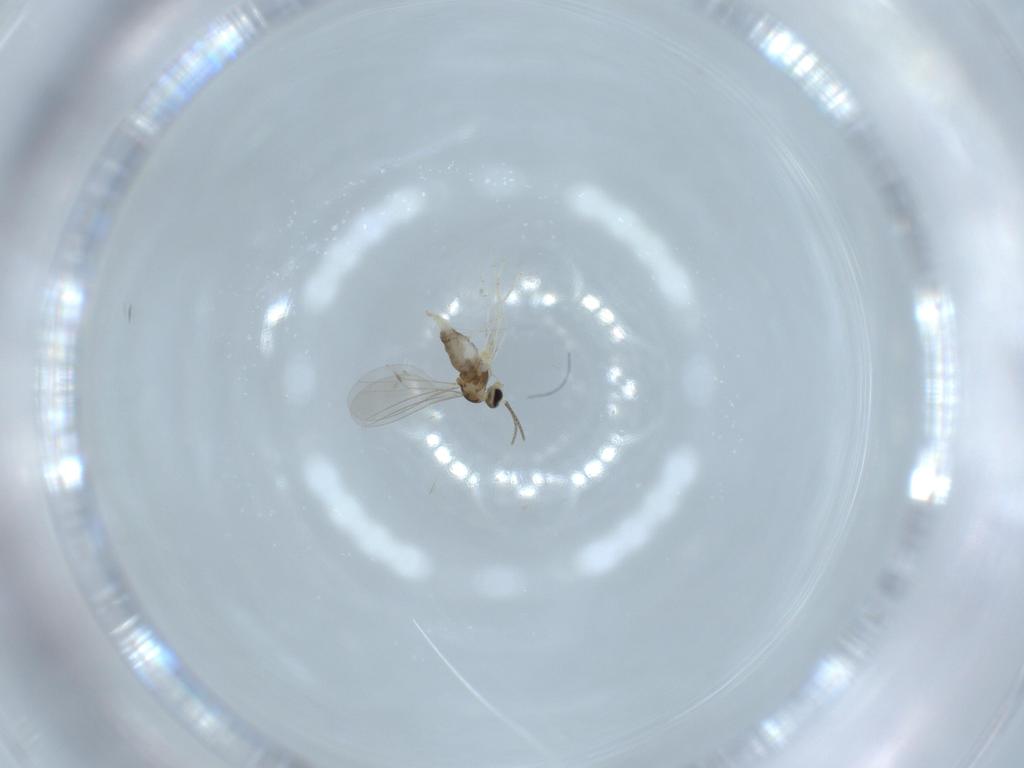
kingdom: Animalia
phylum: Arthropoda
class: Insecta
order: Diptera
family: Cecidomyiidae
